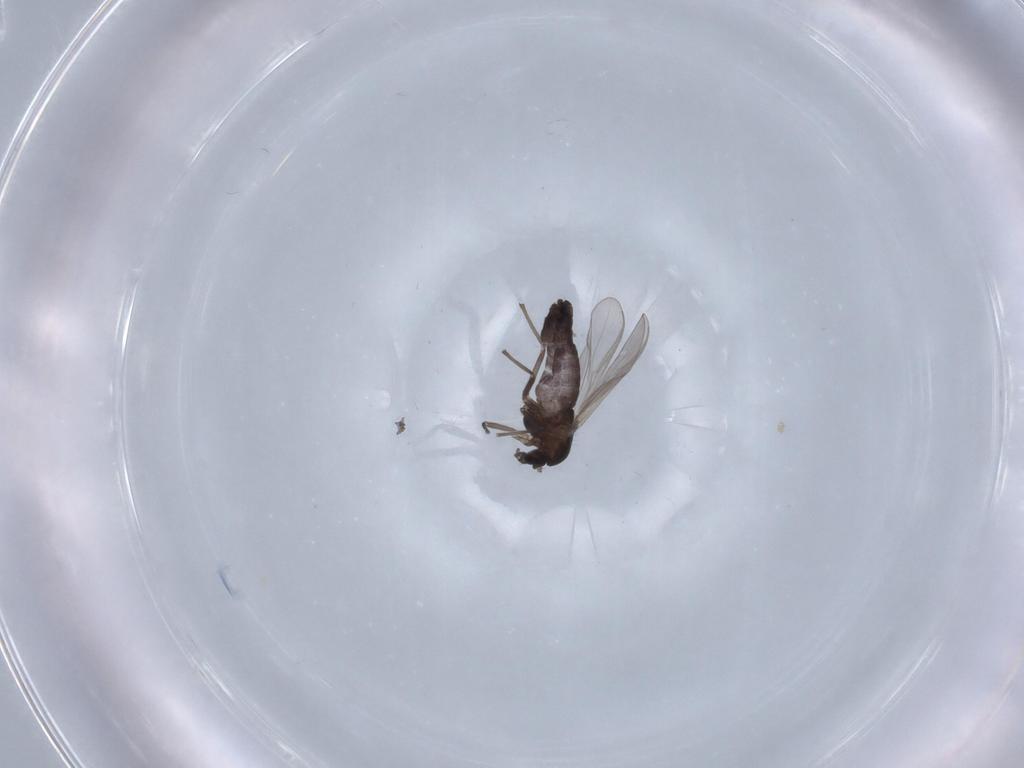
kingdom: Animalia
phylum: Arthropoda
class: Insecta
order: Diptera
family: Chironomidae
